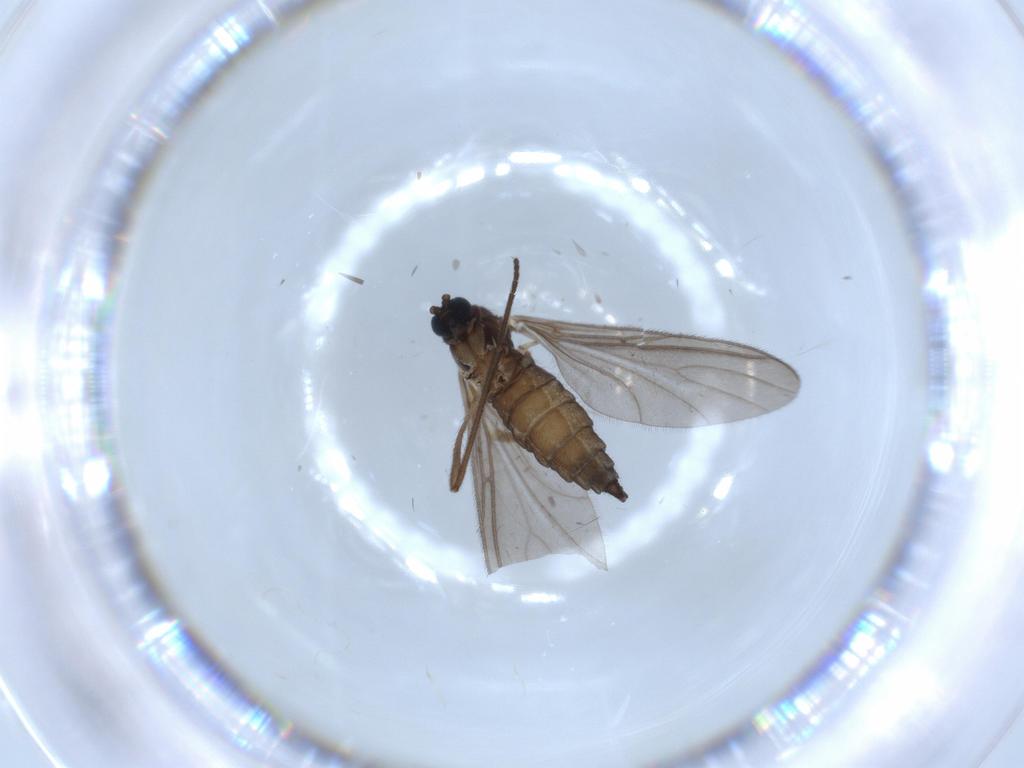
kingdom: Animalia
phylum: Arthropoda
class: Insecta
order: Diptera
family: Sciaridae
